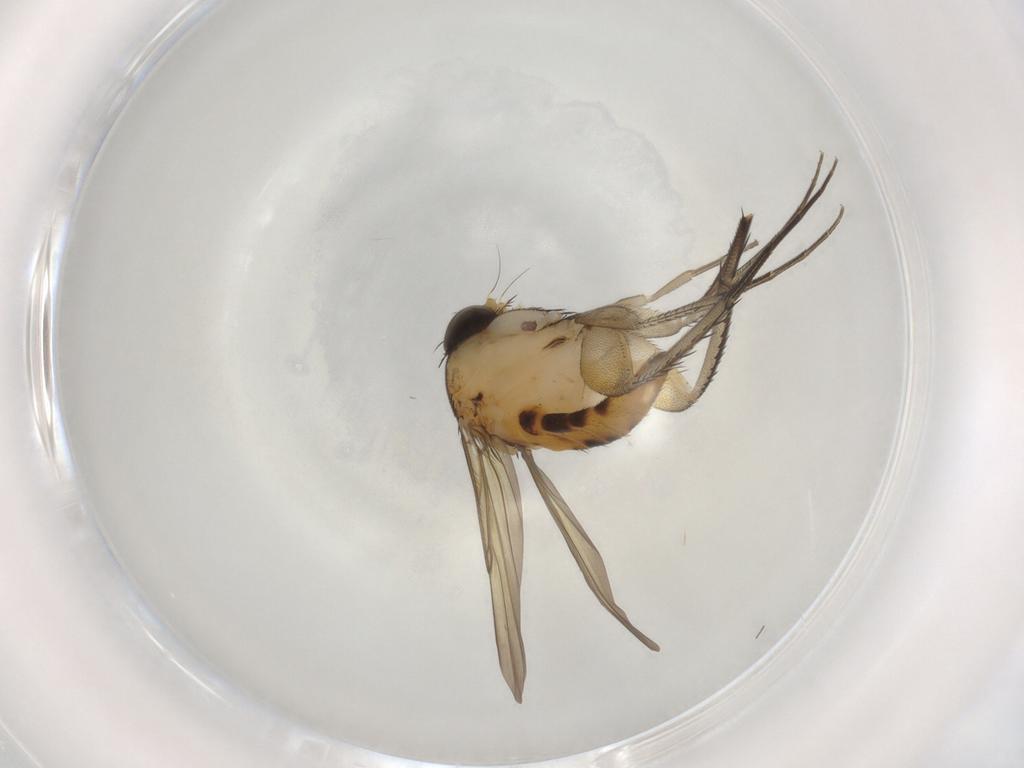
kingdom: Animalia
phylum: Arthropoda
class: Insecta
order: Diptera
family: Phoridae
